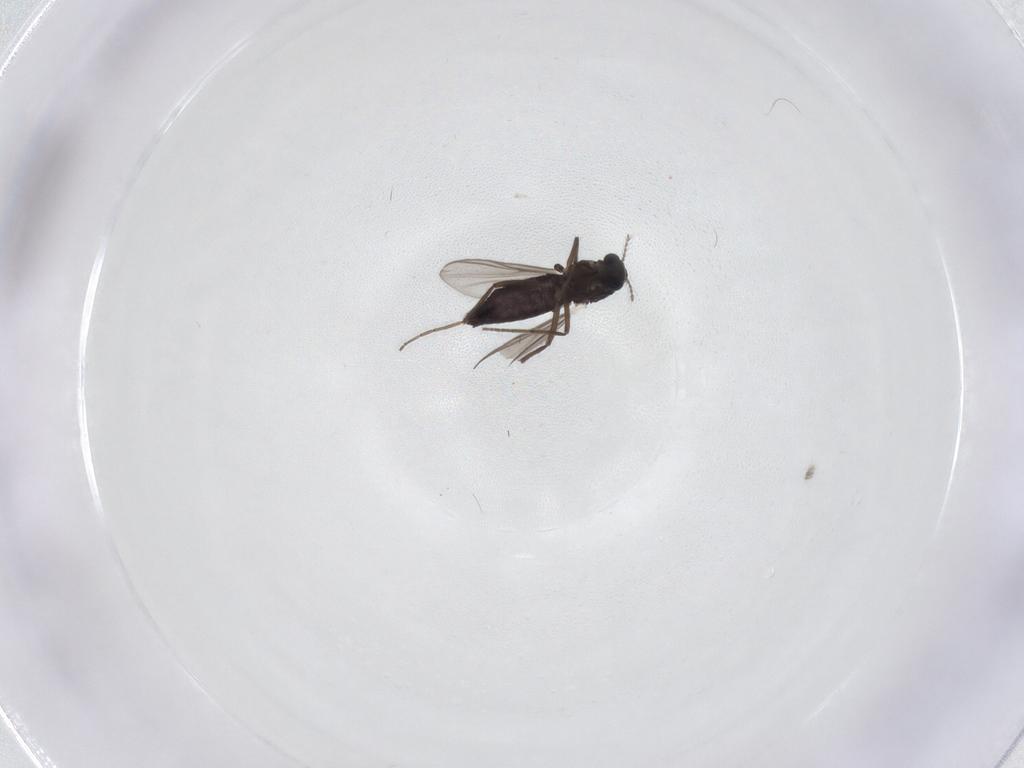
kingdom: Animalia
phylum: Arthropoda
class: Insecta
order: Diptera
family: Chironomidae
